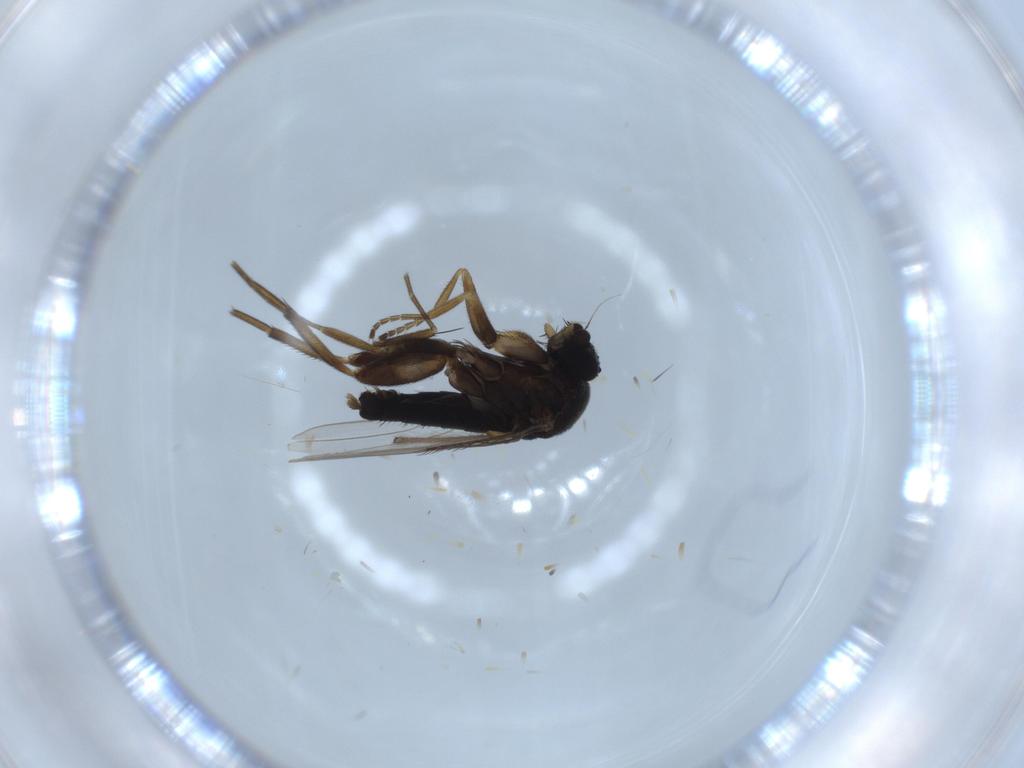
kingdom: Animalia
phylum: Arthropoda
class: Insecta
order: Diptera
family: Phoridae
